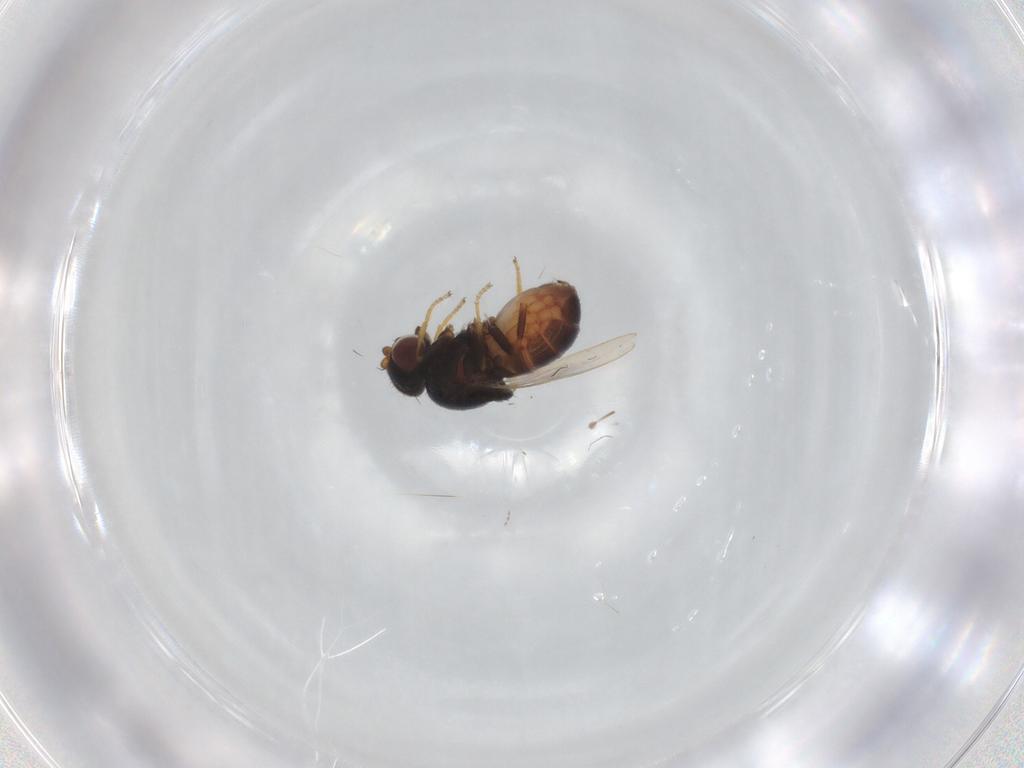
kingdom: Animalia
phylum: Arthropoda
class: Insecta
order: Diptera
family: Chloropidae
